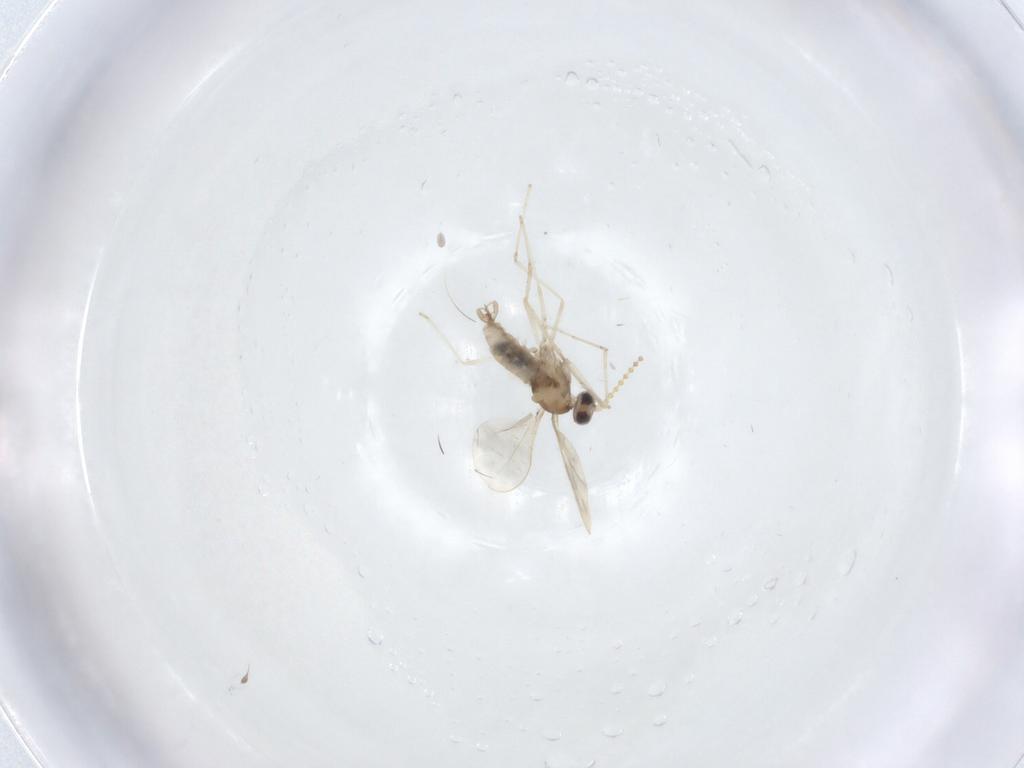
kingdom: Animalia
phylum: Arthropoda
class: Insecta
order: Diptera
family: Cecidomyiidae
